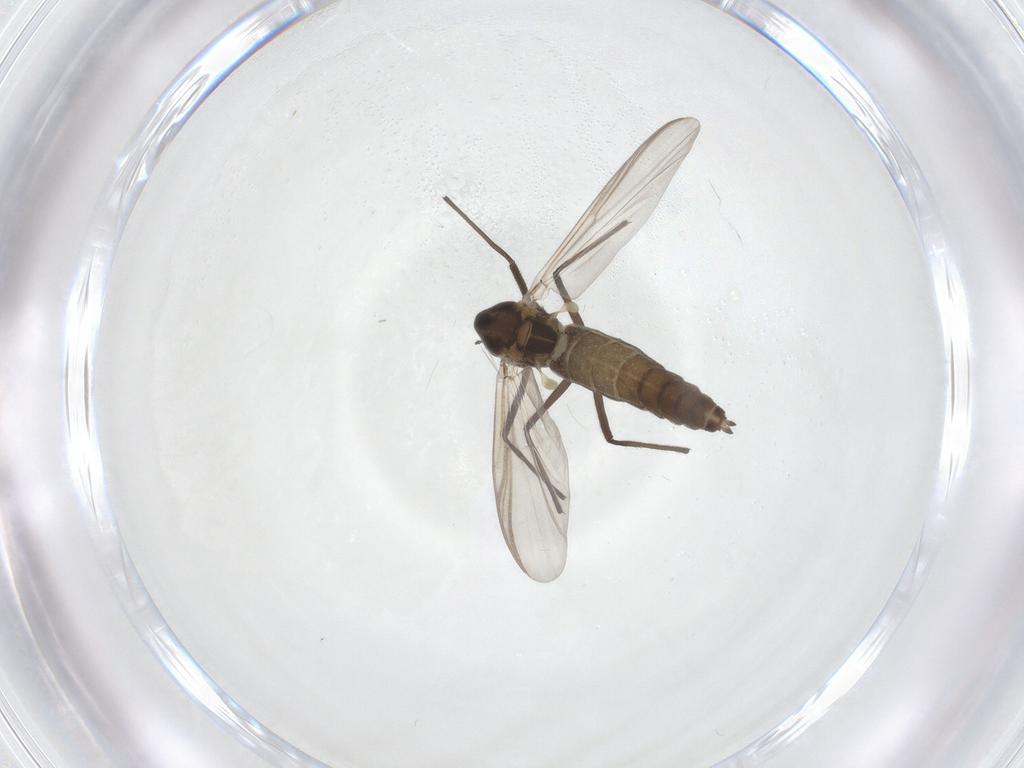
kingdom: Animalia
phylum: Arthropoda
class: Insecta
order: Diptera
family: Chironomidae
